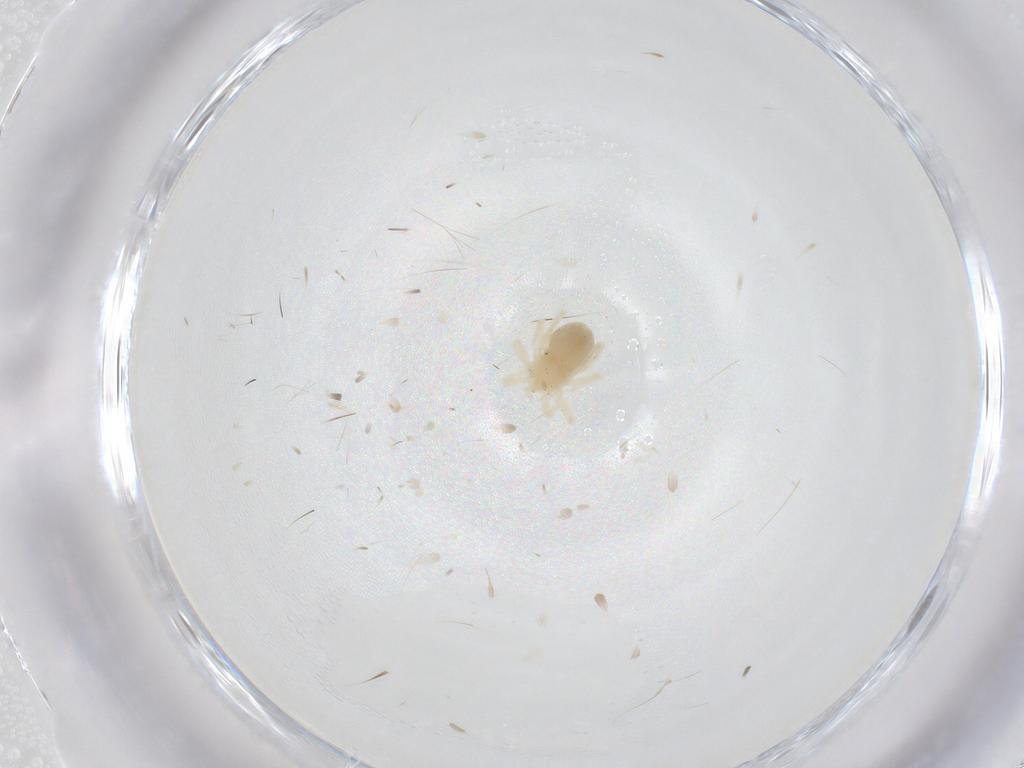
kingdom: Animalia
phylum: Arthropoda
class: Arachnida
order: Trombidiformes
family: Anystidae
